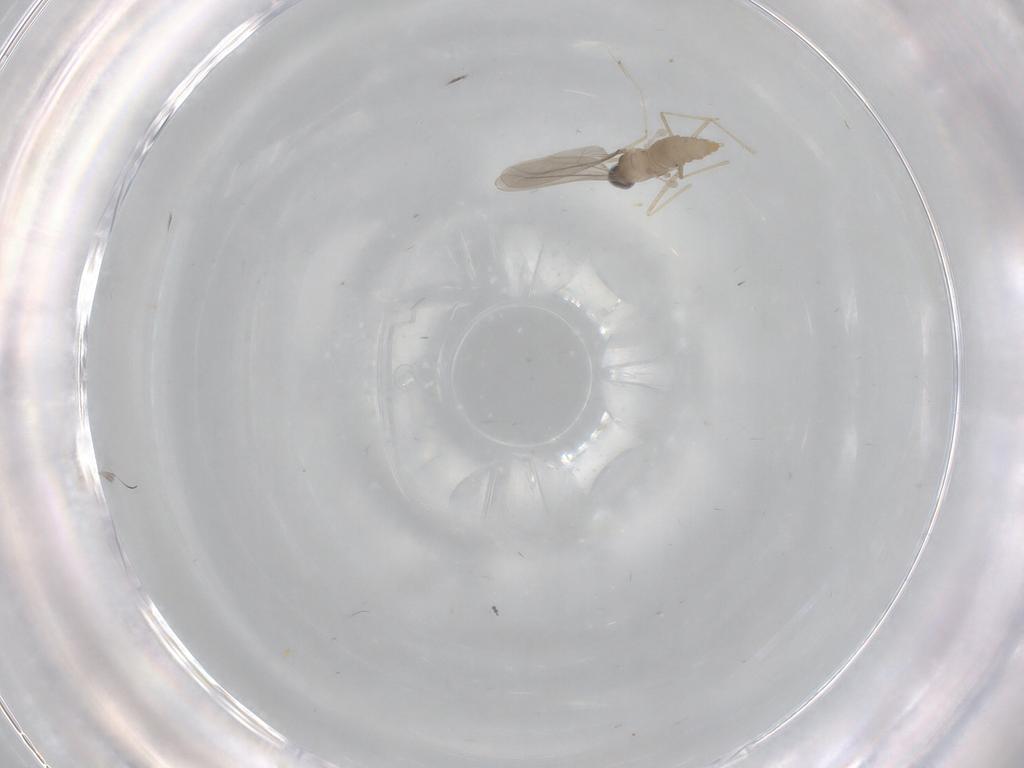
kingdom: Animalia
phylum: Arthropoda
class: Insecta
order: Diptera
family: Cecidomyiidae
